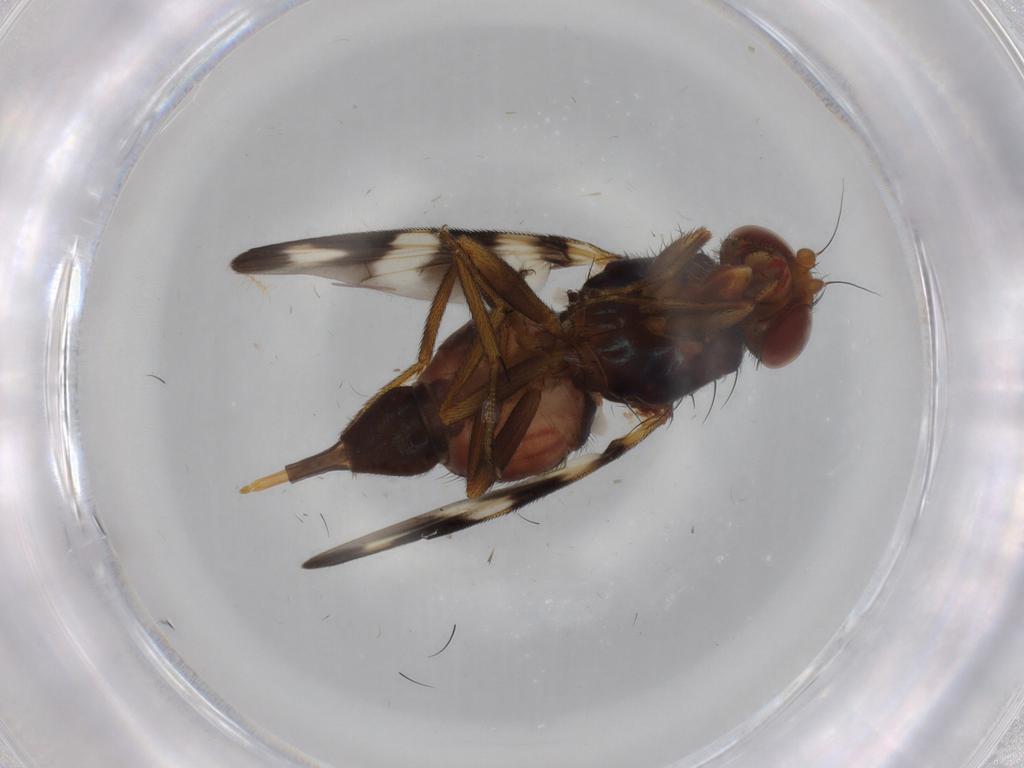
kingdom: Animalia
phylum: Arthropoda
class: Insecta
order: Diptera
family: Ulidiidae
